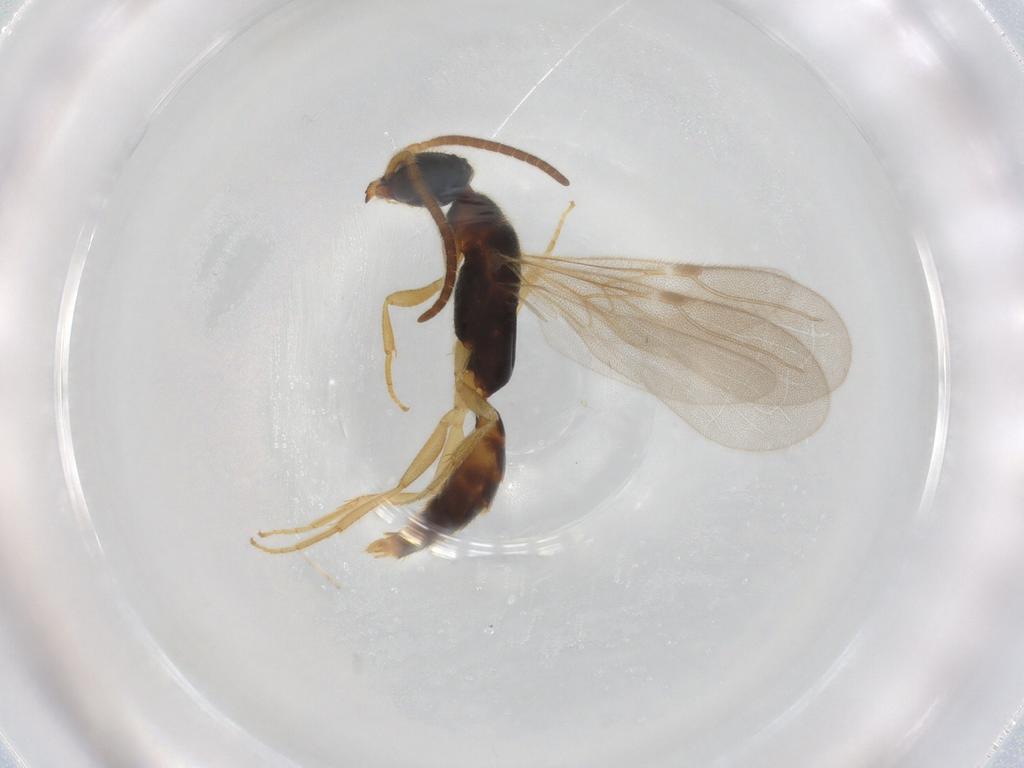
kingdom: Animalia
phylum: Arthropoda
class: Insecta
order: Hymenoptera
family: Bethylidae
